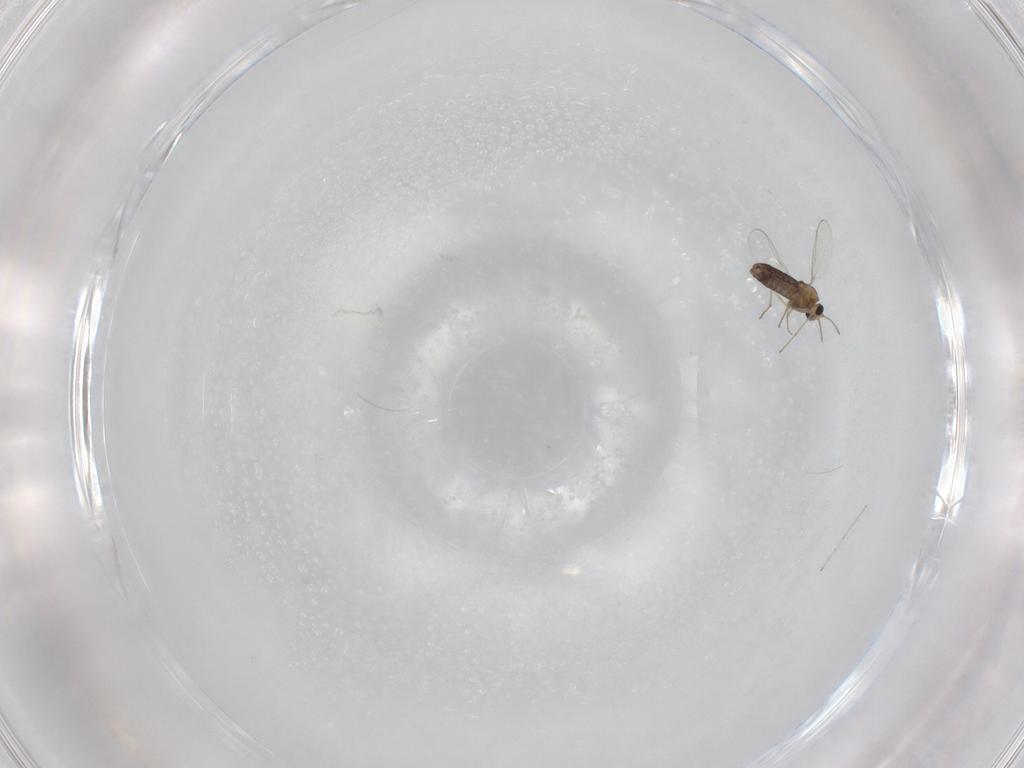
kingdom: Animalia
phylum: Arthropoda
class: Insecta
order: Diptera
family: Chironomidae
